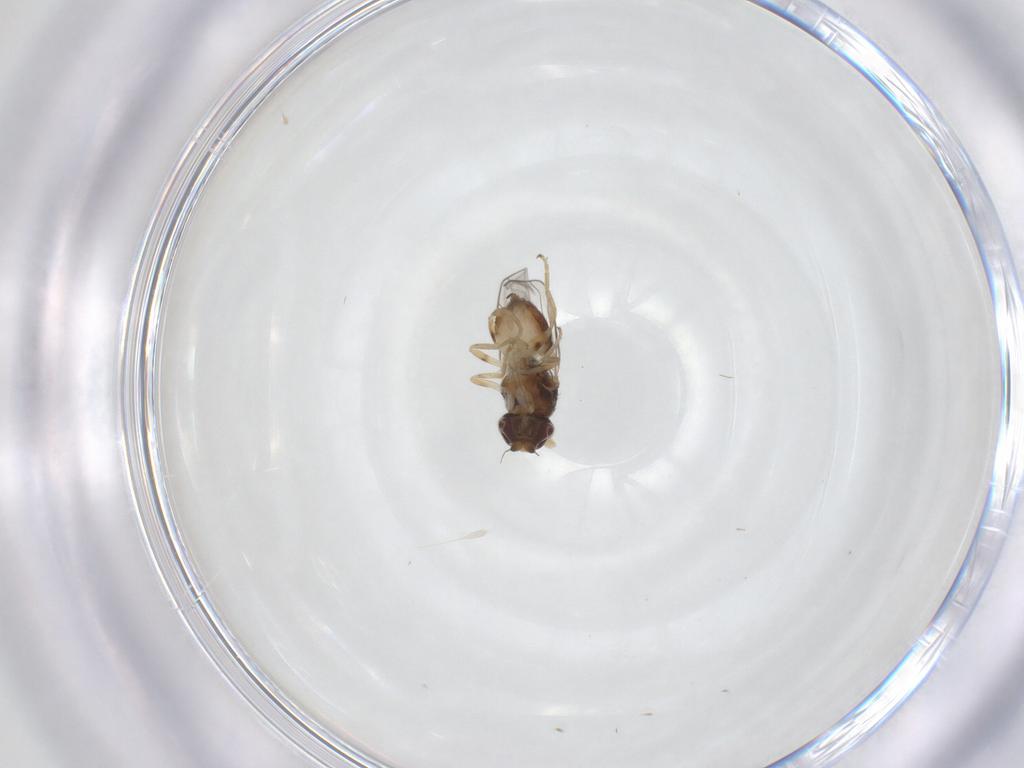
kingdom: Animalia
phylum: Arthropoda
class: Insecta
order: Diptera
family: Chloropidae
